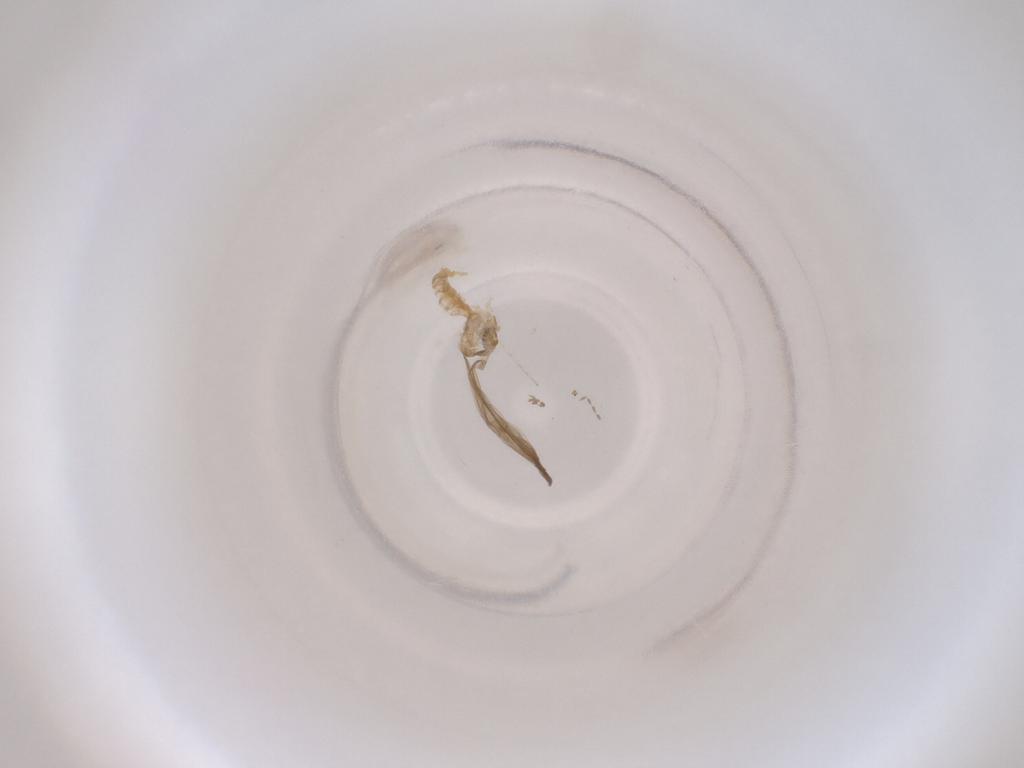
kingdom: Animalia
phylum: Arthropoda
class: Insecta
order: Diptera
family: Cecidomyiidae
